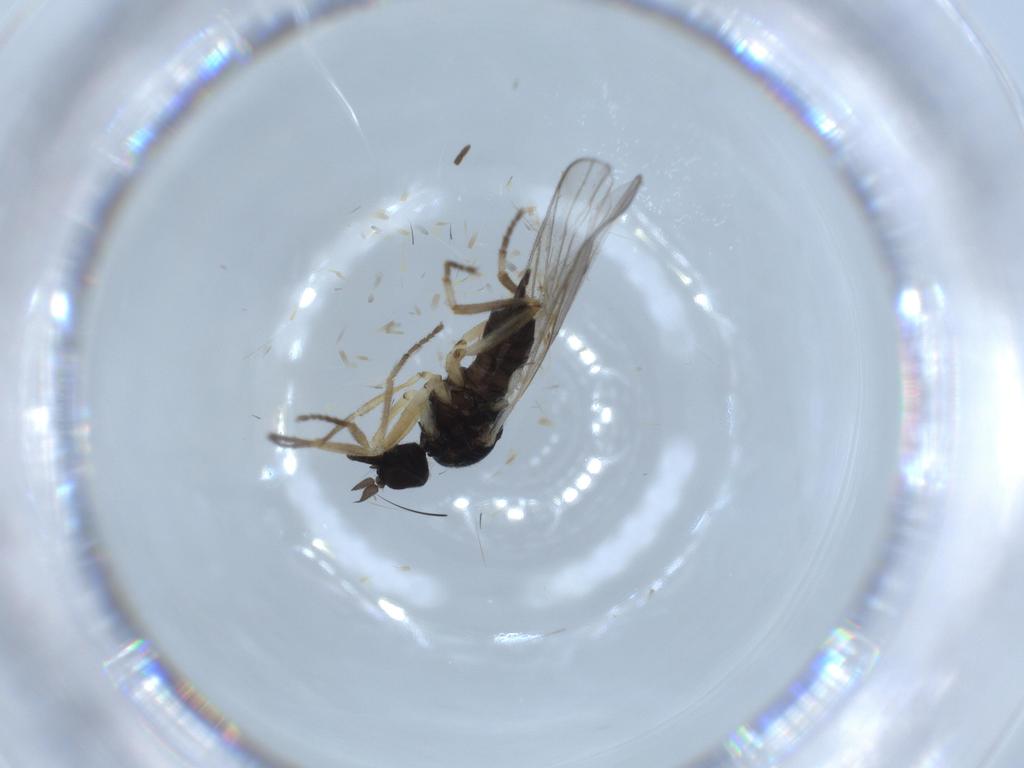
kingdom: Animalia
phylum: Arthropoda
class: Insecta
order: Diptera
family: Hybotidae
